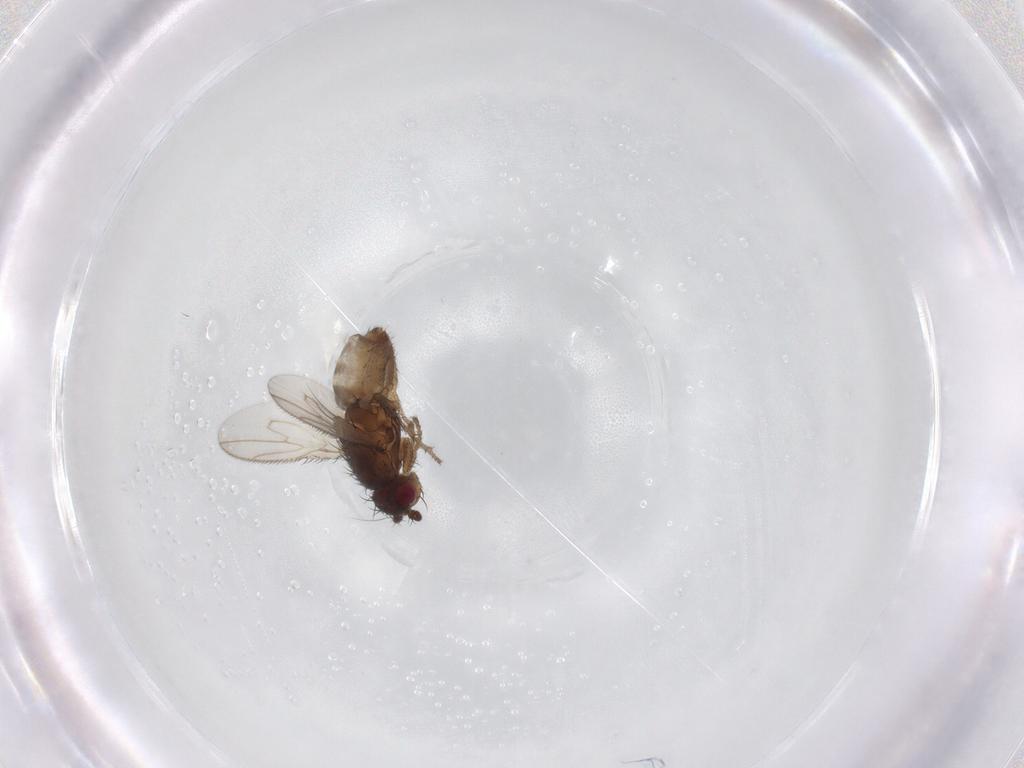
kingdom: Animalia
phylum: Arthropoda
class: Insecta
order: Diptera
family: Sphaeroceridae
